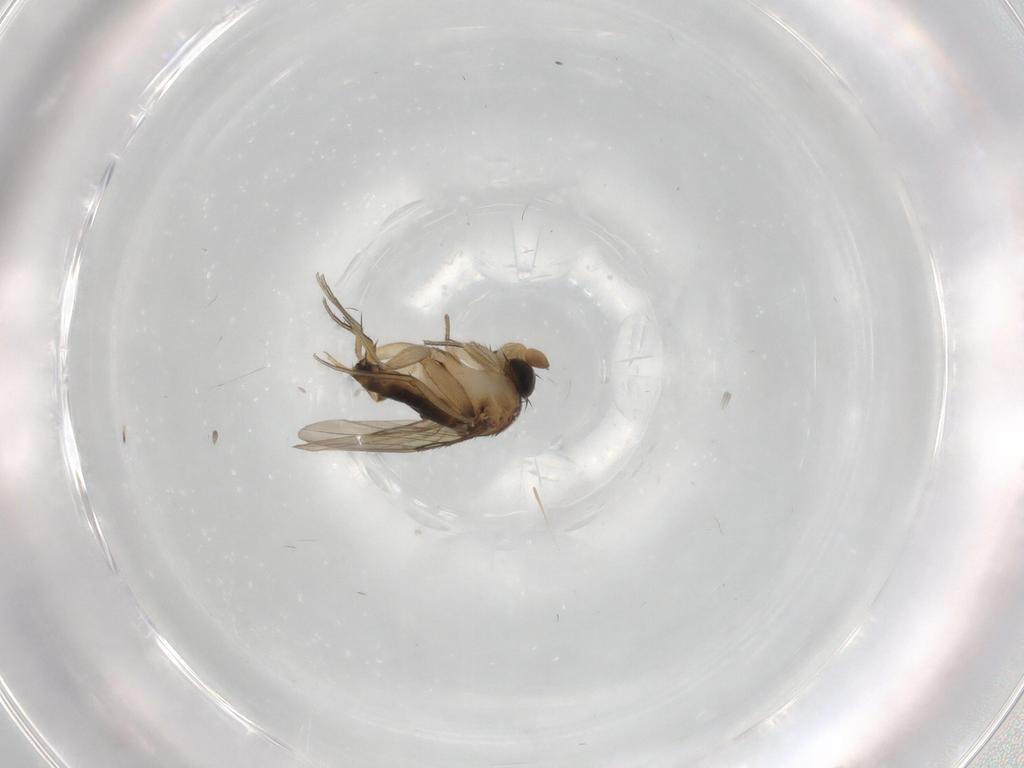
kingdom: Animalia
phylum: Arthropoda
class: Insecta
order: Diptera
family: Phoridae
